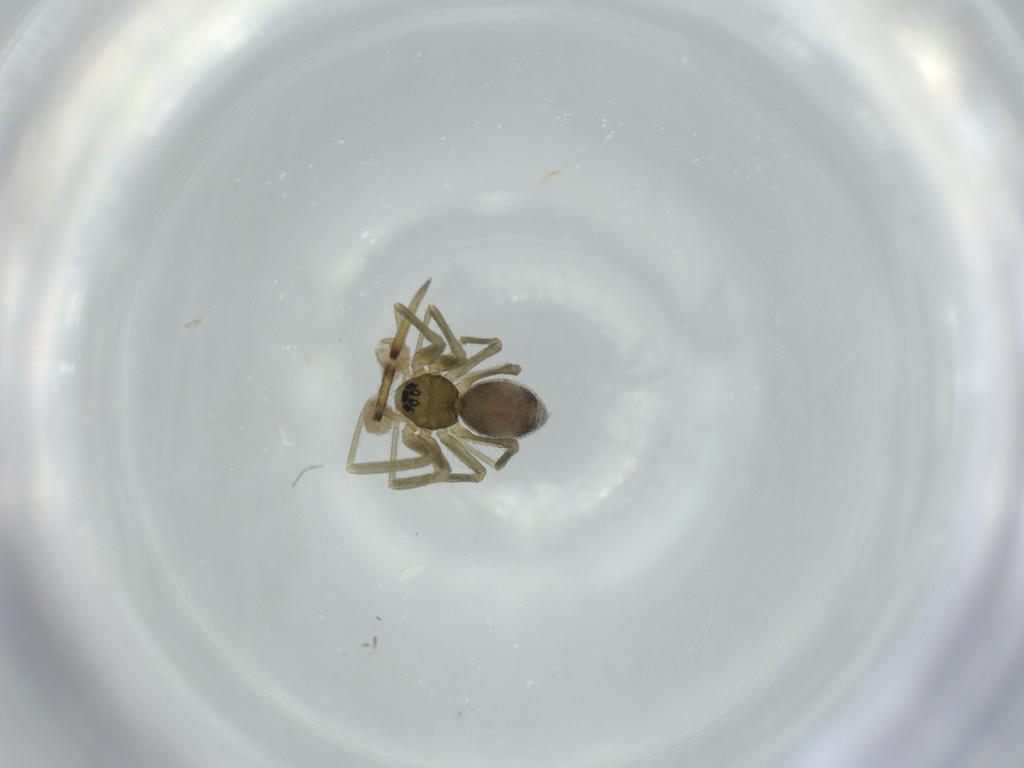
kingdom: Animalia
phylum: Arthropoda
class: Arachnida
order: Araneae
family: Linyphiidae
